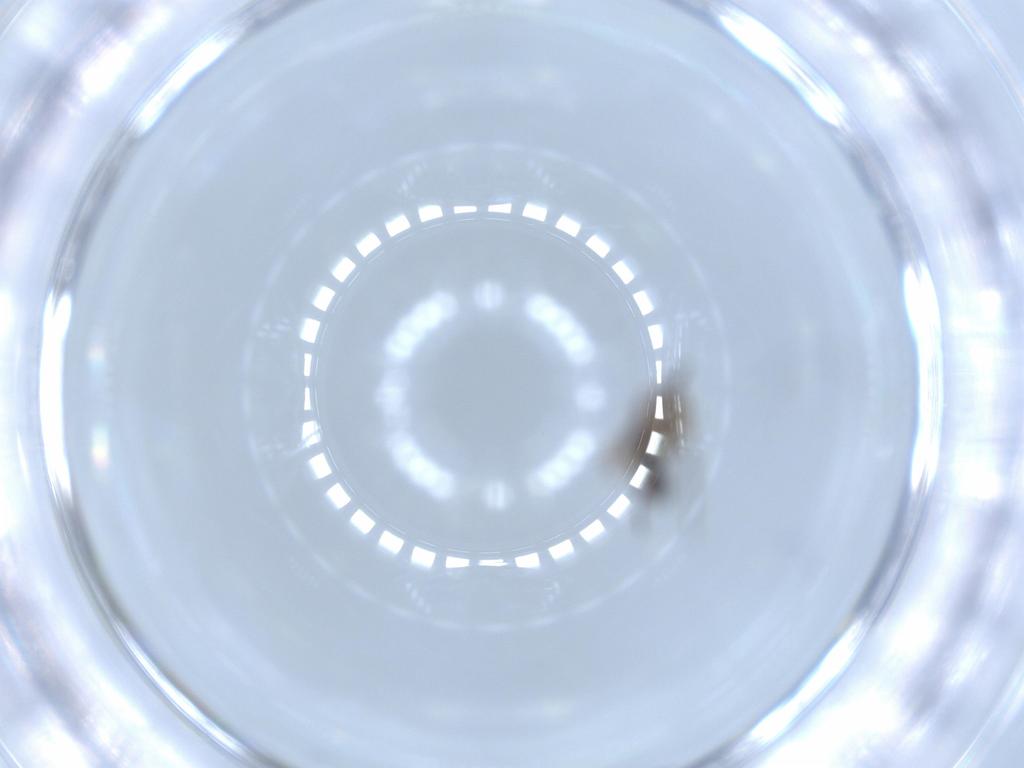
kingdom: Animalia
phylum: Arthropoda
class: Insecta
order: Diptera
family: Sciaridae
